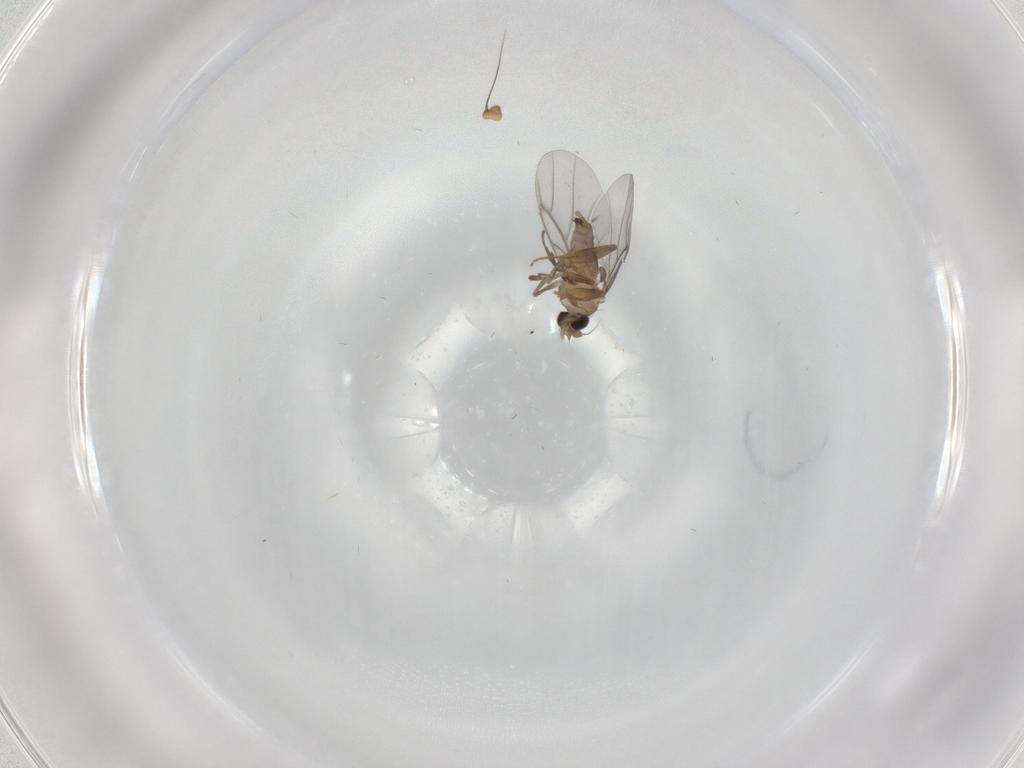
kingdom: Animalia
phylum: Arthropoda
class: Insecta
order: Diptera
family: Dolichopodidae
